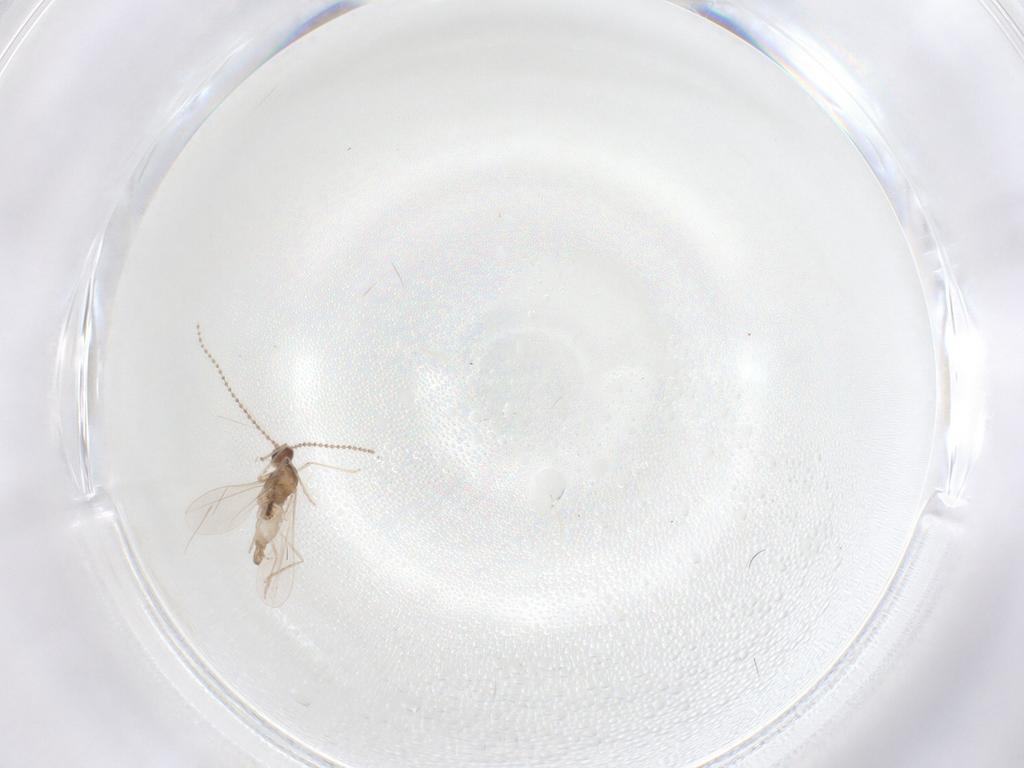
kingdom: Animalia
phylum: Arthropoda
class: Insecta
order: Diptera
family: Cecidomyiidae
